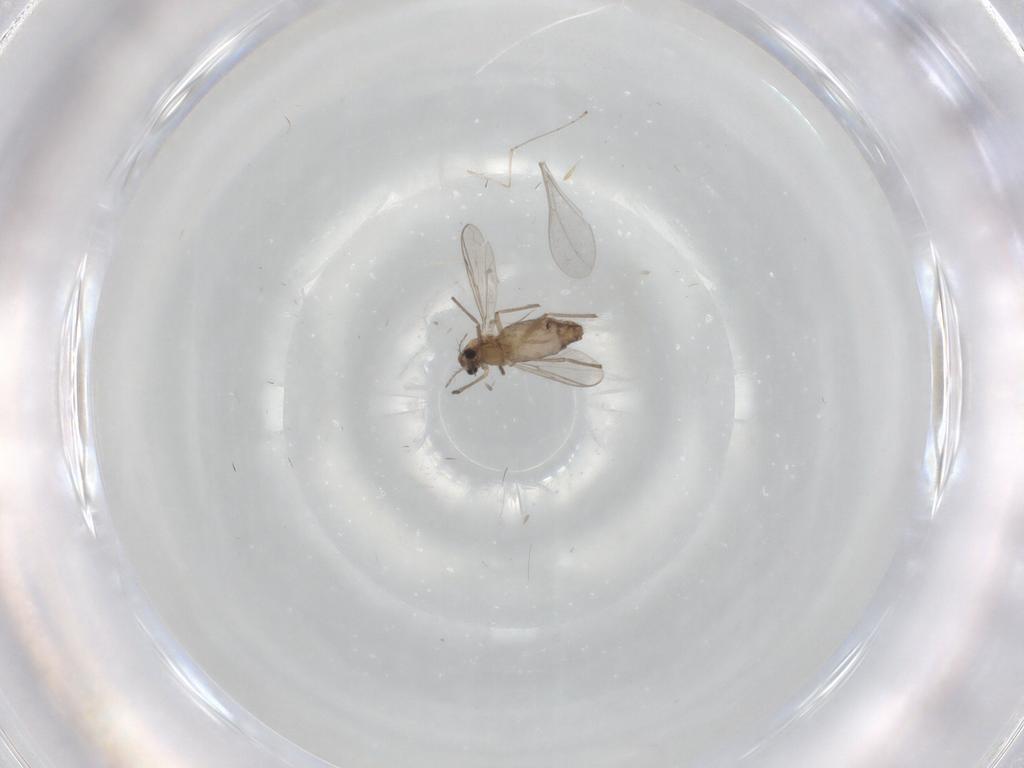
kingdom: Animalia
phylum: Arthropoda
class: Insecta
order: Diptera
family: Chironomidae
